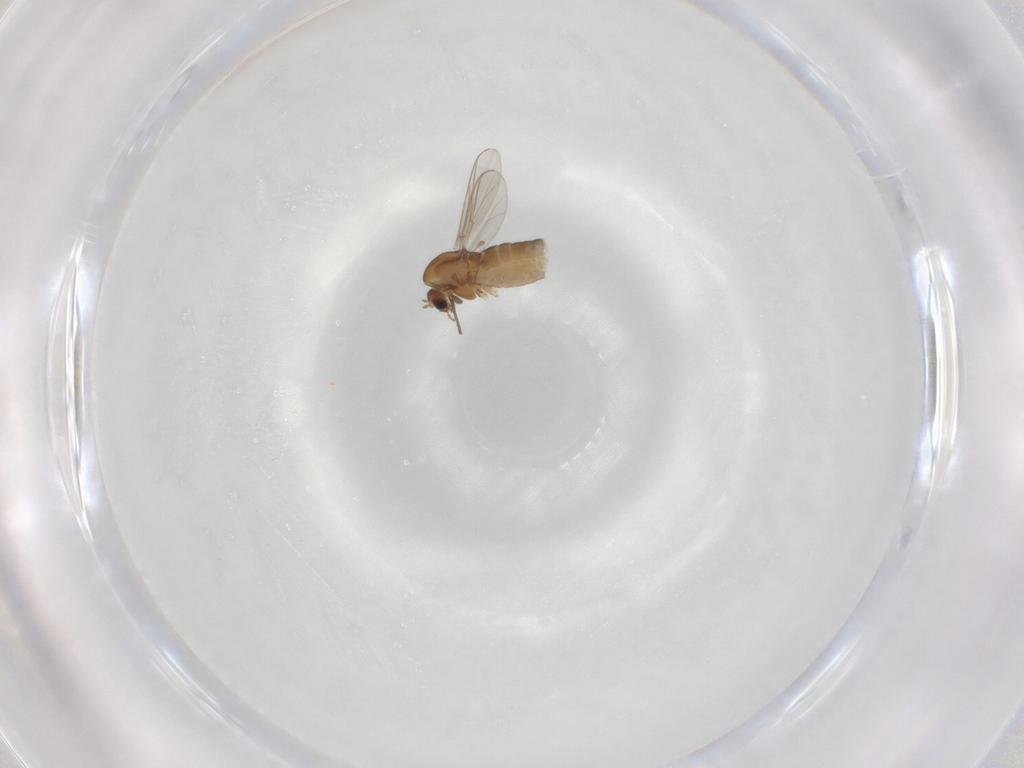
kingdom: Animalia
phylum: Arthropoda
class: Insecta
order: Diptera
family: Chironomidae
